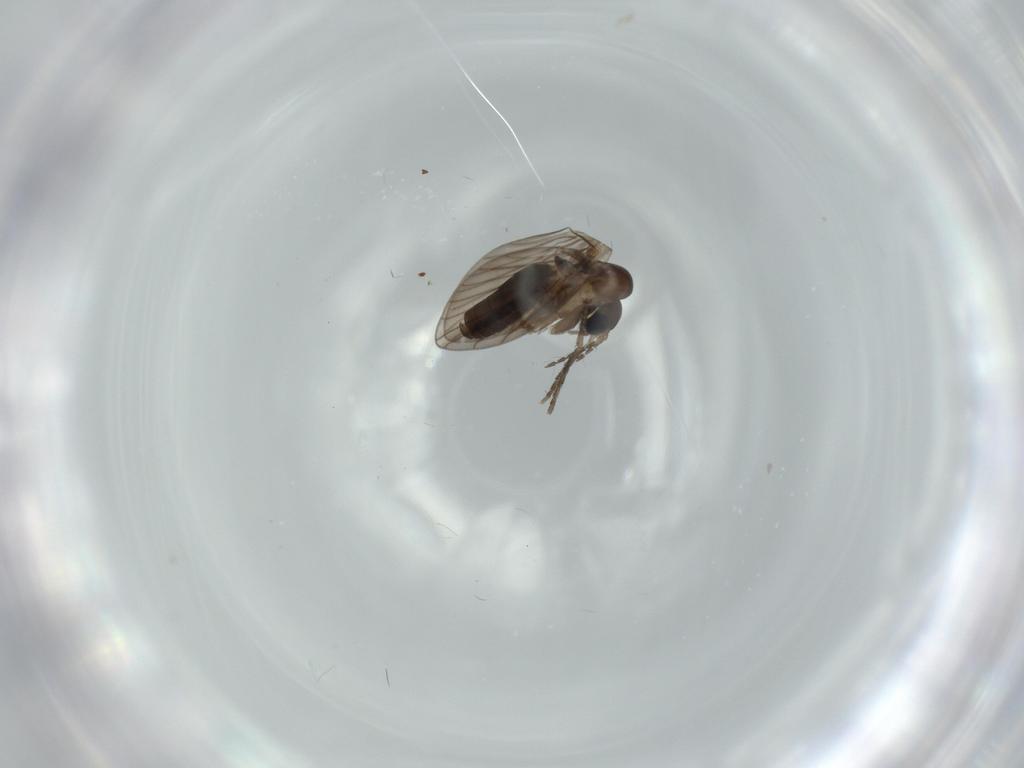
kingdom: Animalia
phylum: Arthropoda
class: Insecta
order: Diptera
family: Psychodidae
